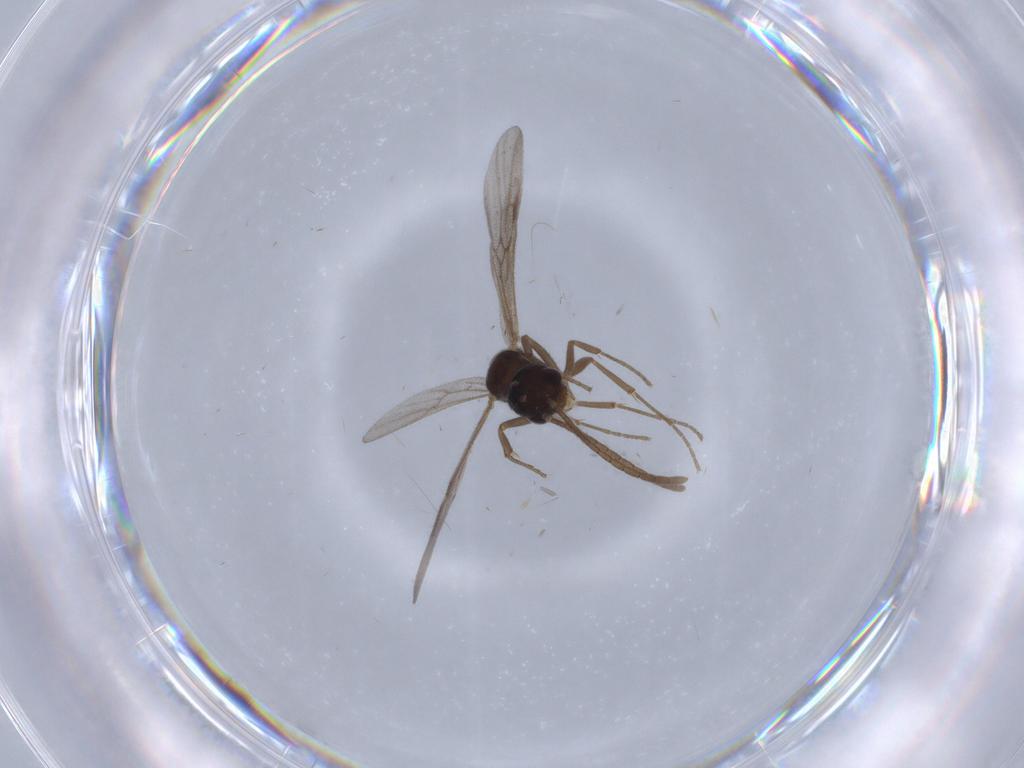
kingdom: Animalia
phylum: Arthropoda
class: Insecta
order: Hymenoptera
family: Formicidae
